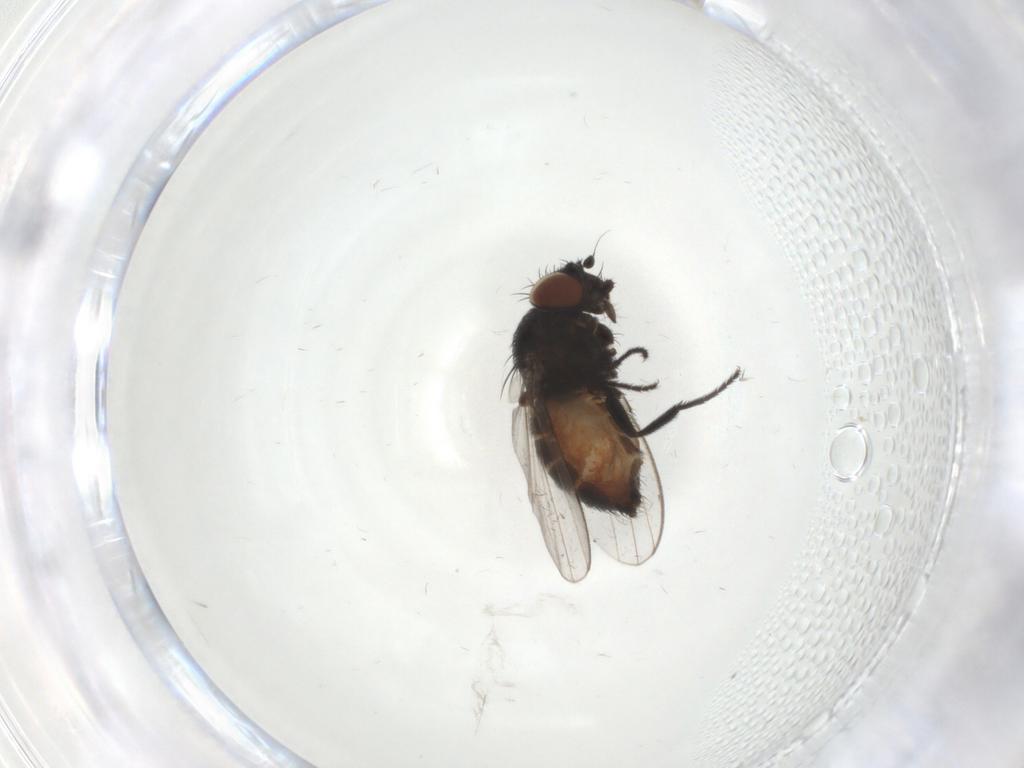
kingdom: Animalia
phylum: Arthropoda
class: Insecta
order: Diptera
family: Milichiidae
